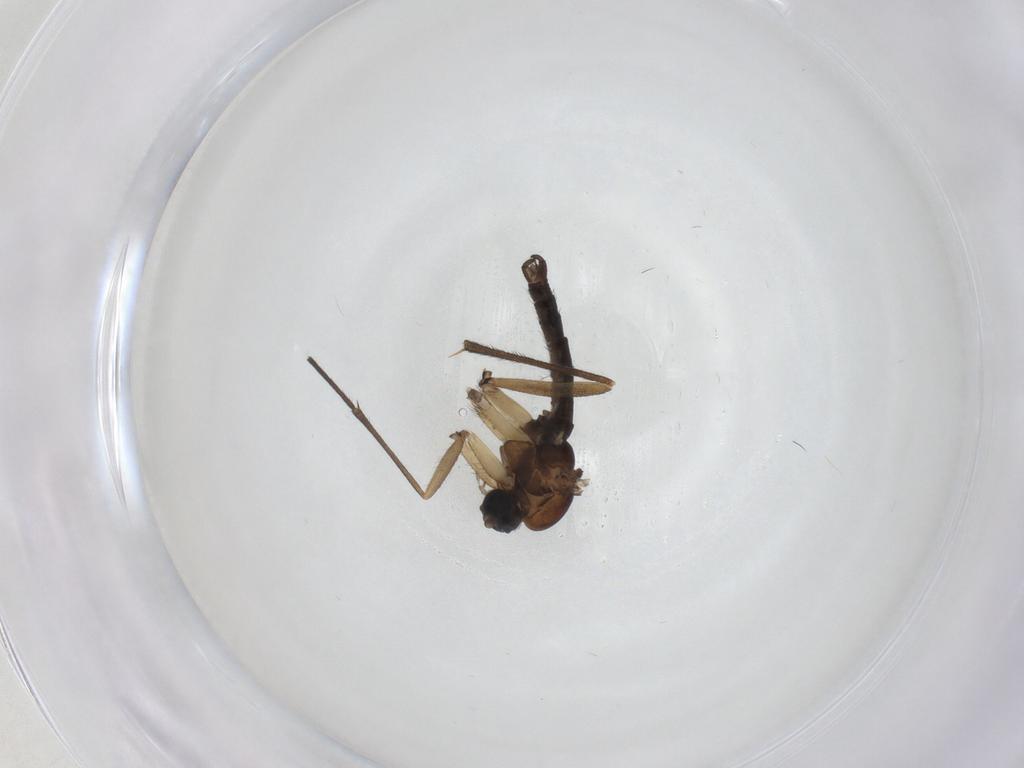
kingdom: Animalia
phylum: Arthropoda
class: Insecta
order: Diptera
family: Sciaridae
